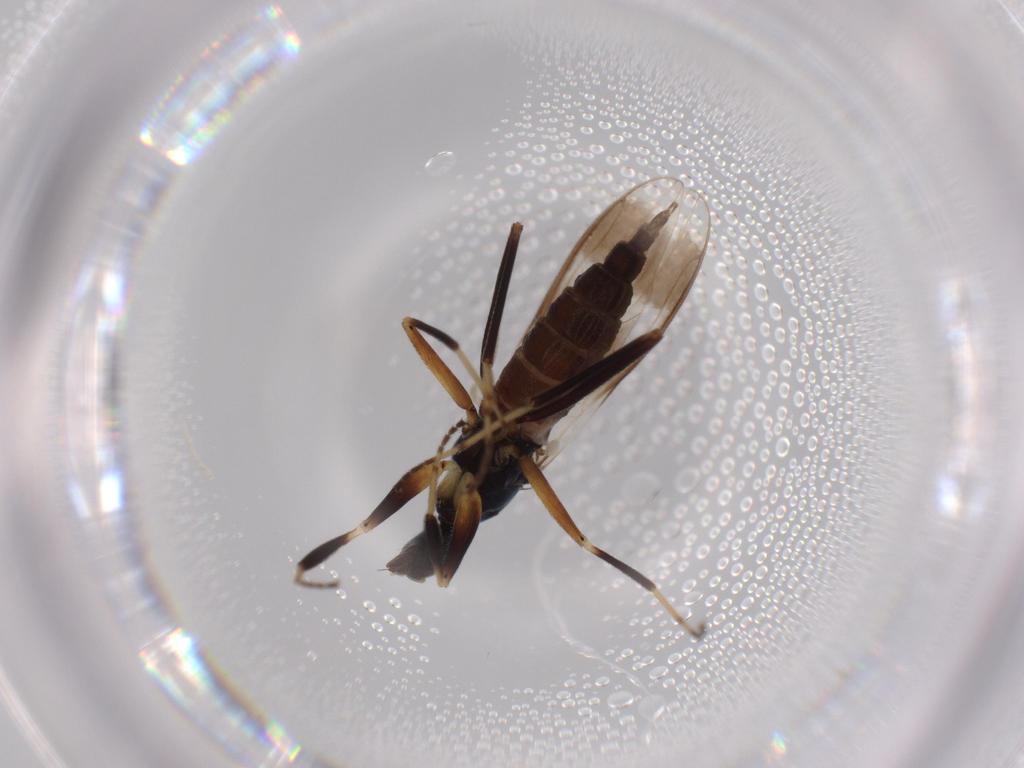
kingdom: Animalia
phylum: Arthropoda
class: Insecta
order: Diptera
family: Hybotidae
